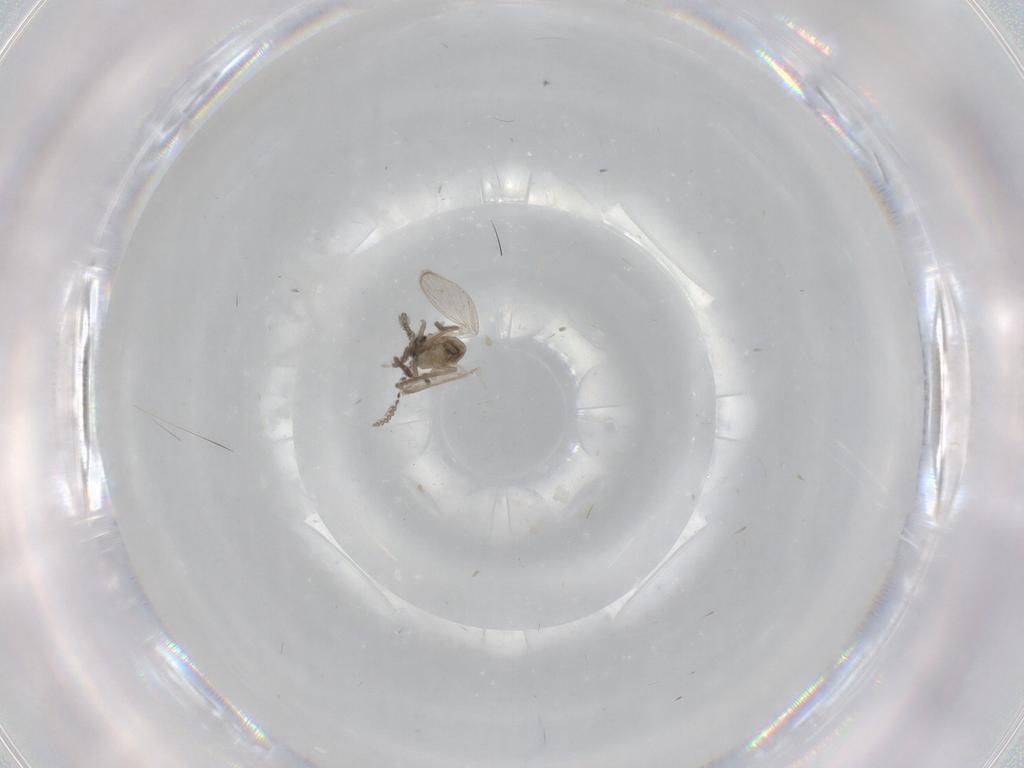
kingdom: Animalia
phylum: Arthropoda
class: Insecta
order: Diptera
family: Psychodidae
